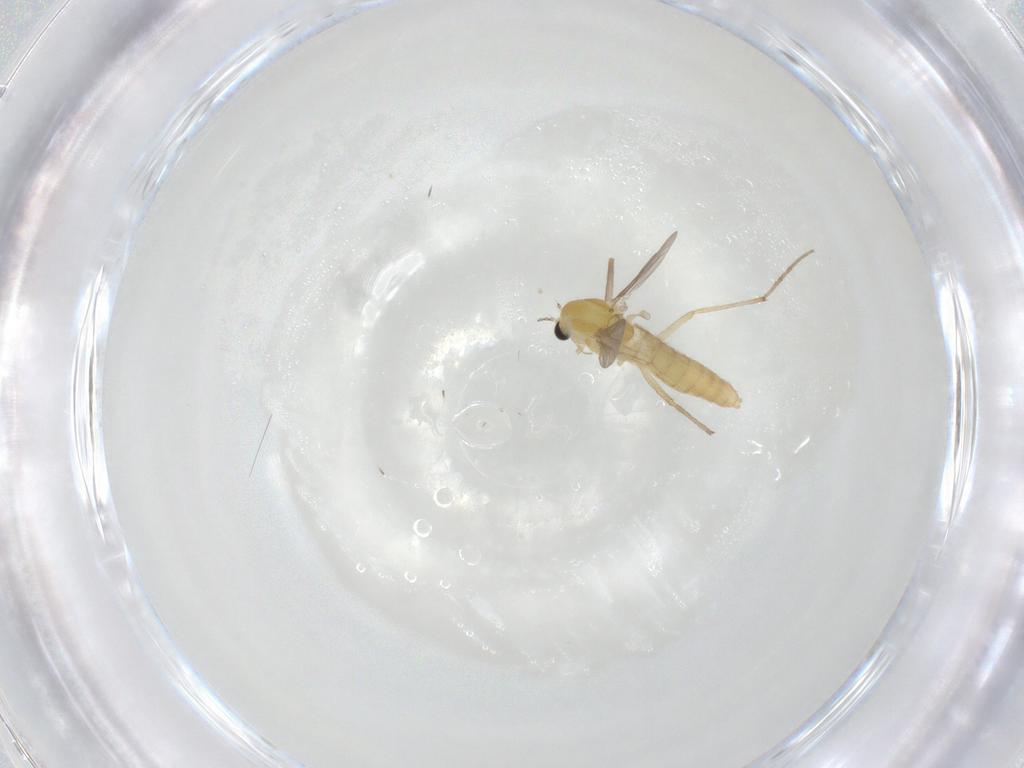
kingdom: Animalia
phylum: Arthropoda
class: Insecta
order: Diptera
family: Chironomidae
